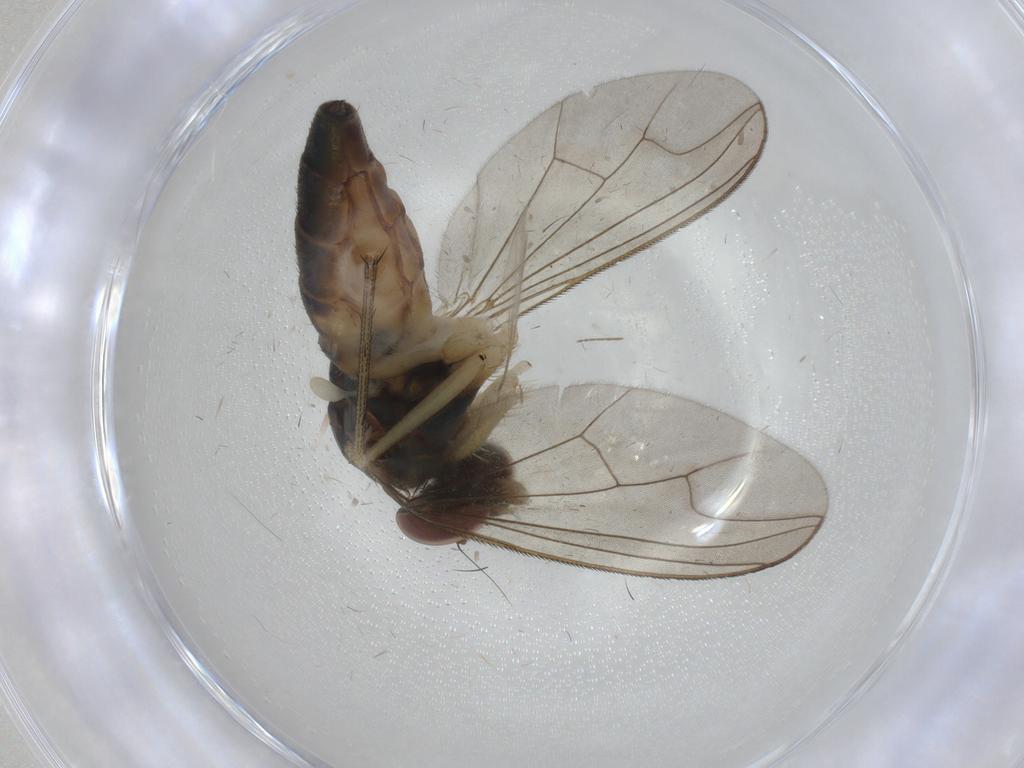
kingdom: Animalia
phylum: Arthropoda
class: Insecta
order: Diptera
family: Dolichopodidae
